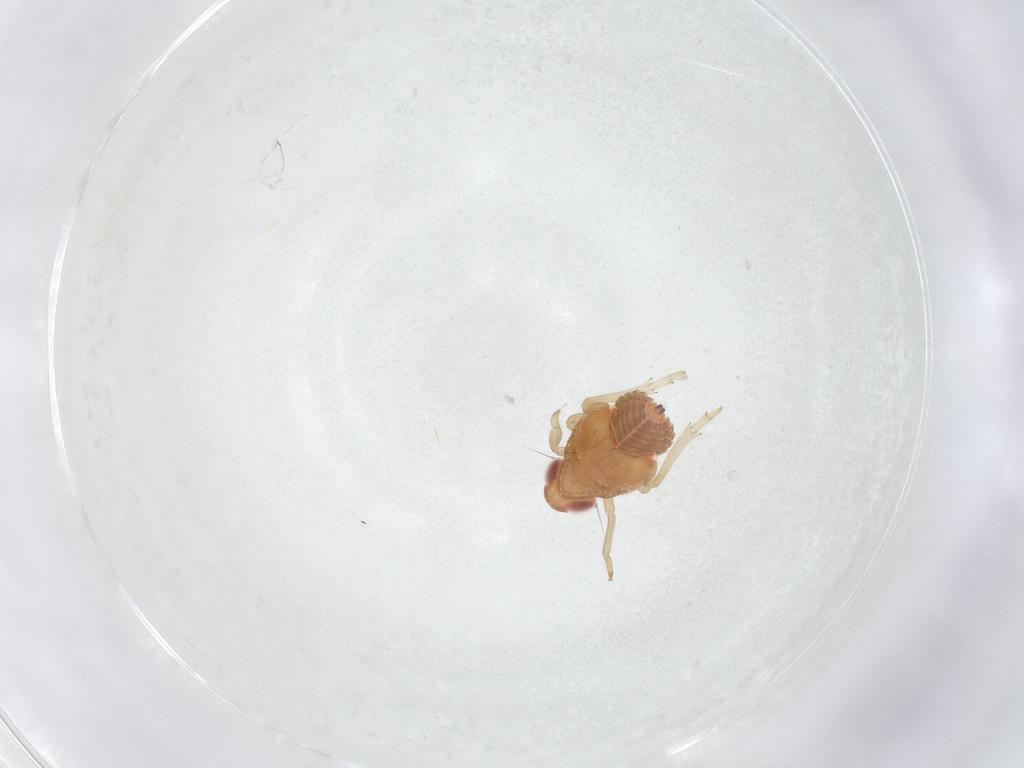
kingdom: Animalia
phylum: Arthropoda
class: Insecta
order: Hemiptera
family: Fulgoroidea_incertae_sedis
